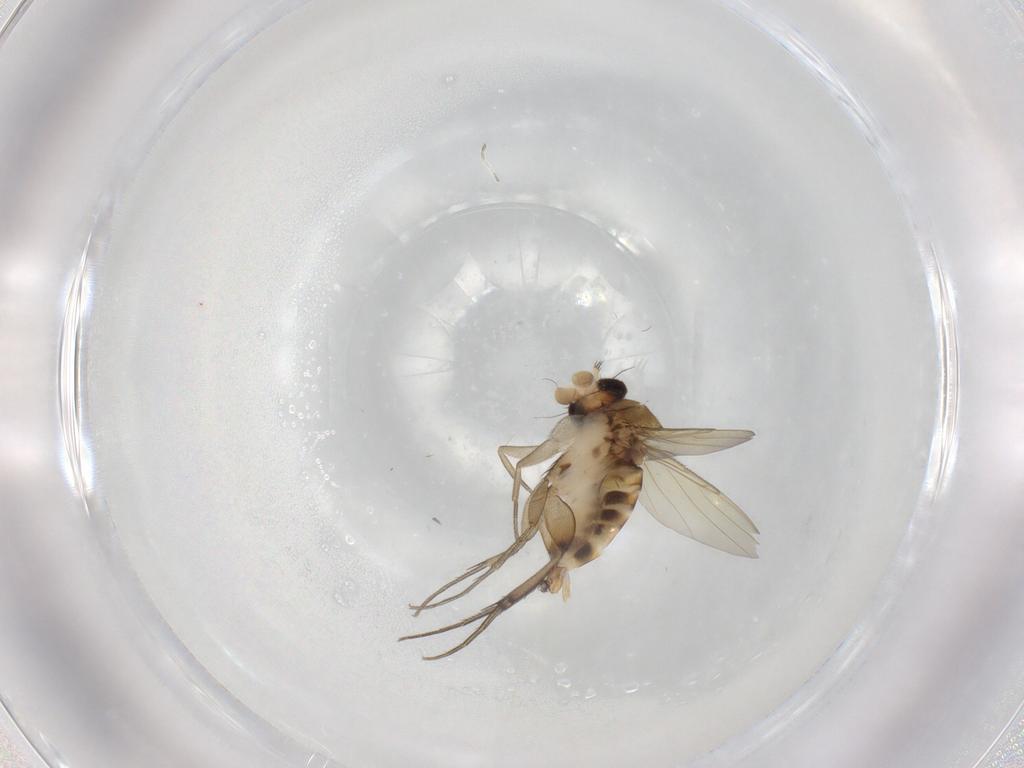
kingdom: Animalia
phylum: Arthropoda
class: Insecta
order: Diptera
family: Phoridae
